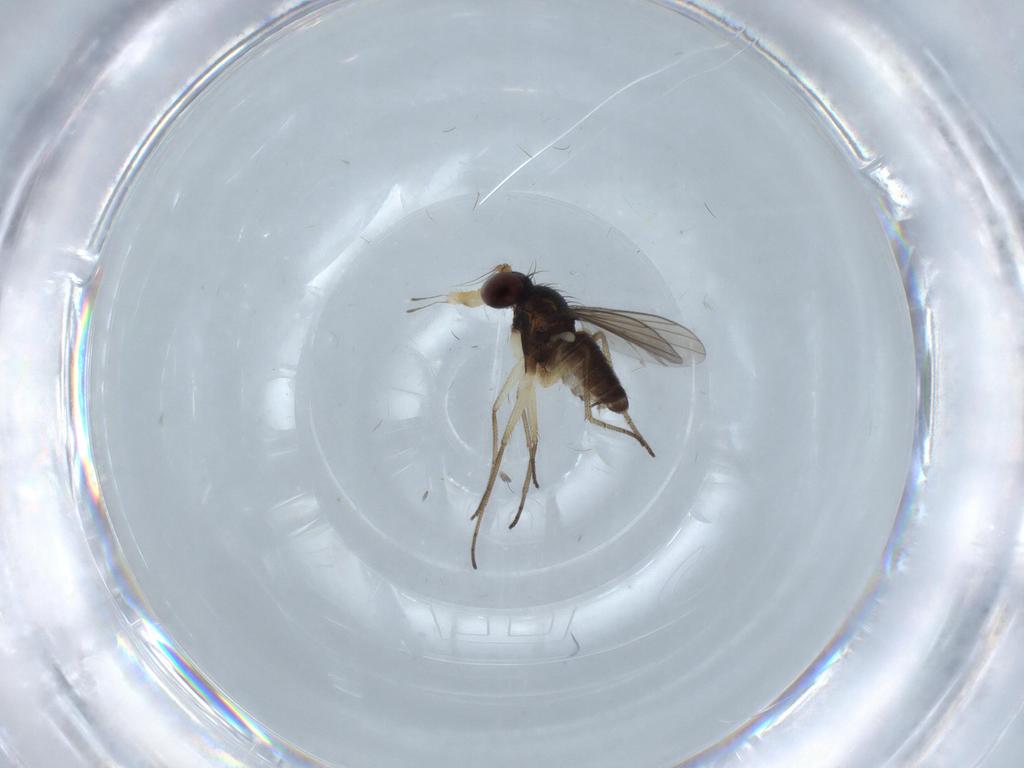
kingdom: Animalia
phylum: Arthropoda
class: Insecta
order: Diptera
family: Dolichopodidae
